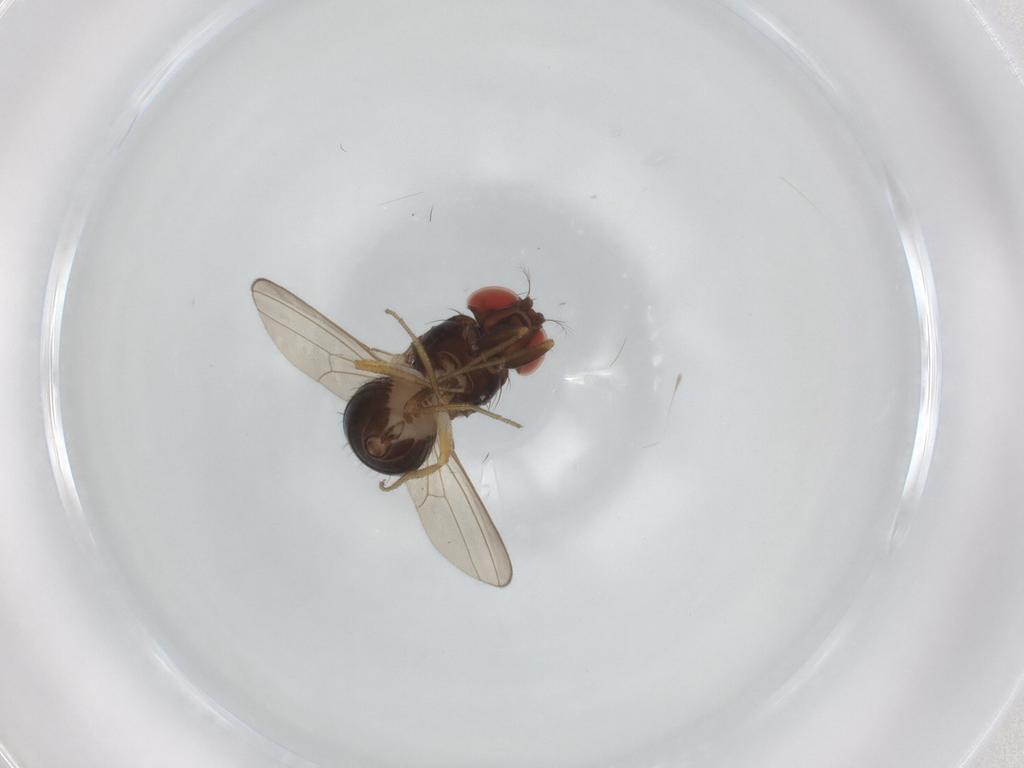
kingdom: Animalia
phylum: Arthropoda
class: Insecta
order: Diptera
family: Drosophilidae
